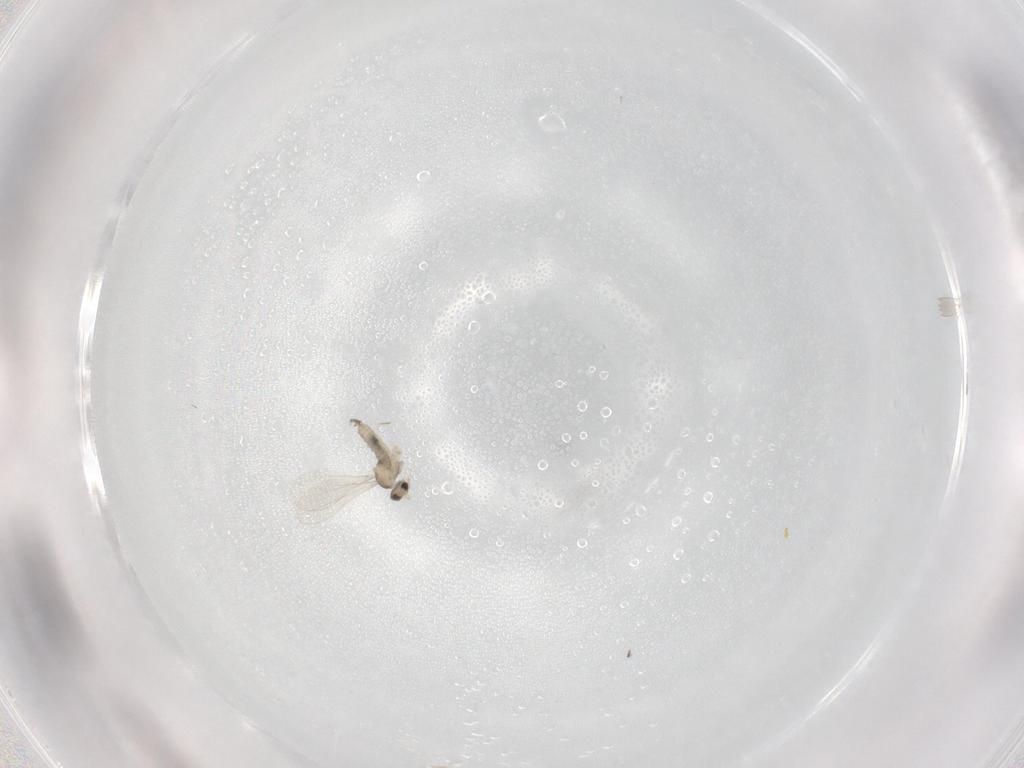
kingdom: Animalia
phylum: Arthropoda
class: Insecta
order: Diptera
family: Cecidomyiidae
